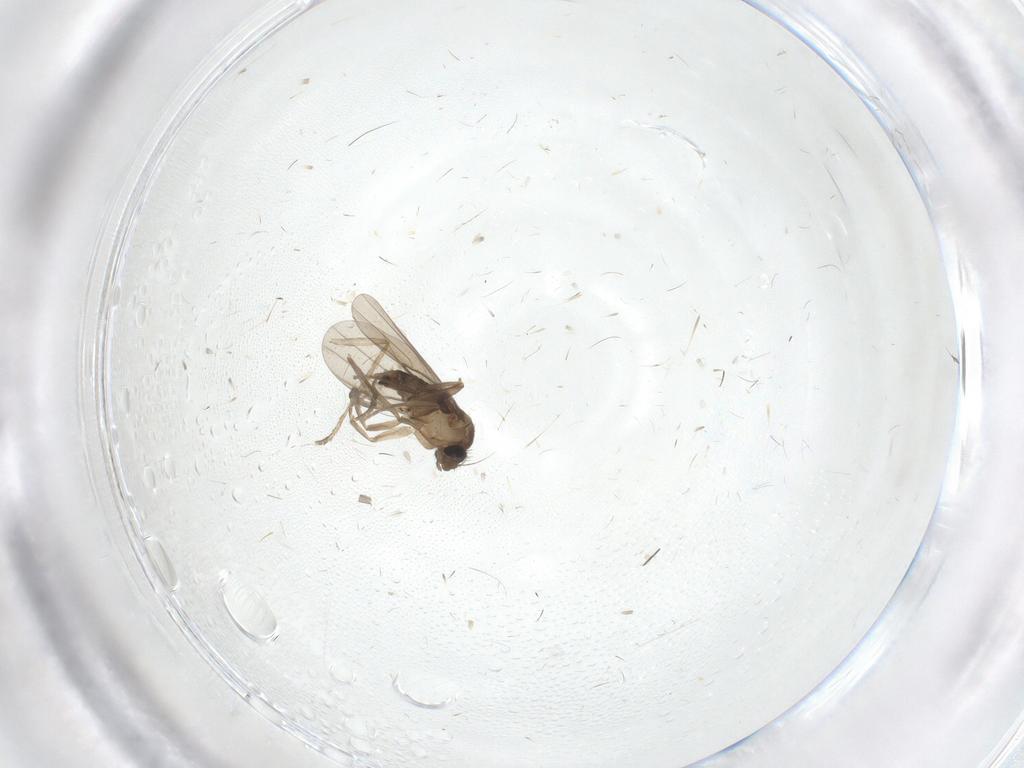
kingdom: Animalia
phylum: Arthropoda
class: Insecta
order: Diptera
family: Phoridae
